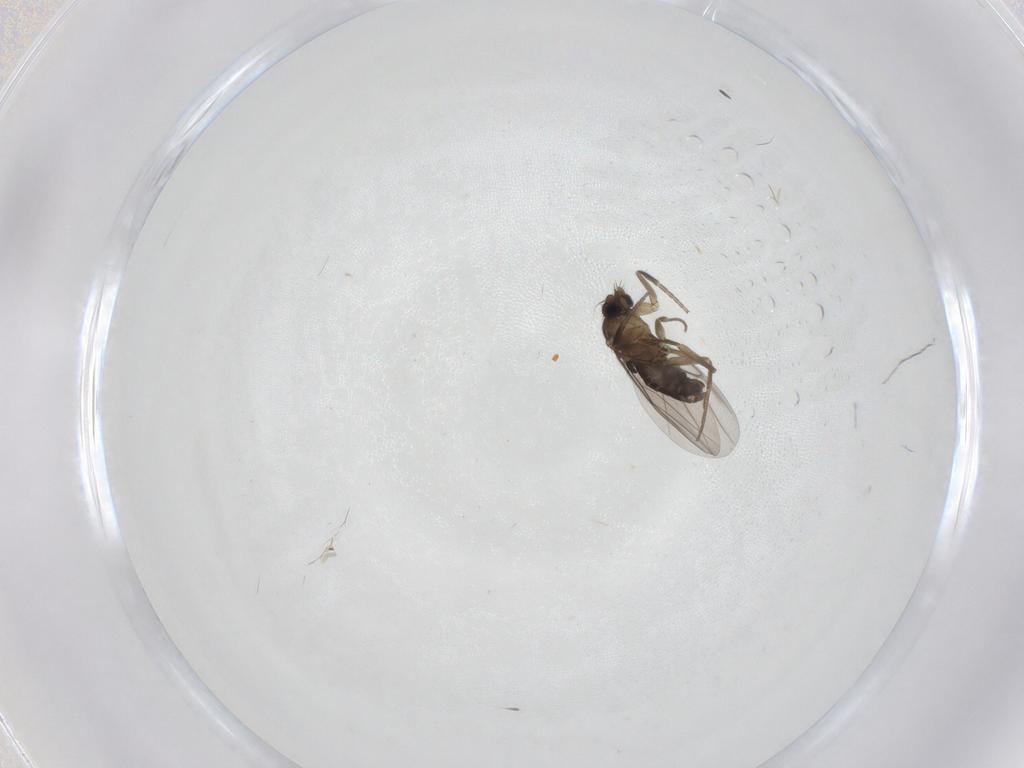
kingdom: Animalia
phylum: Arthropoda
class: Insecta
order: Diptera
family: Phoridae
